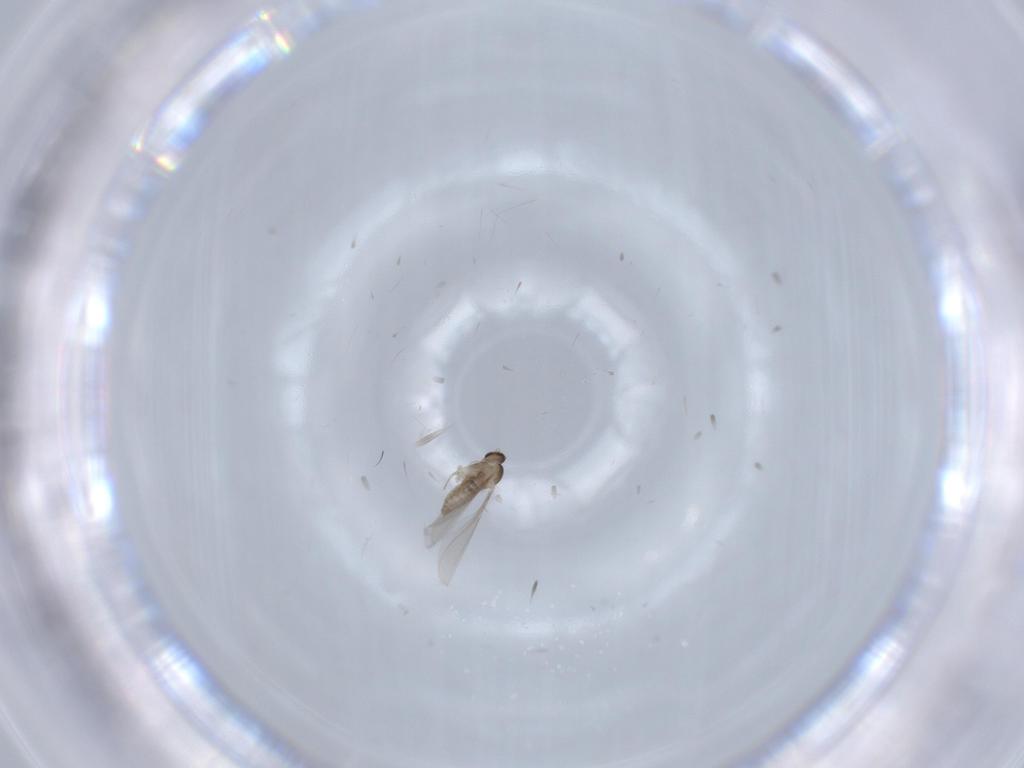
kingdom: Animalia
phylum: Arthropoda
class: Insecta
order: Diptera
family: Cecidomyiidae
